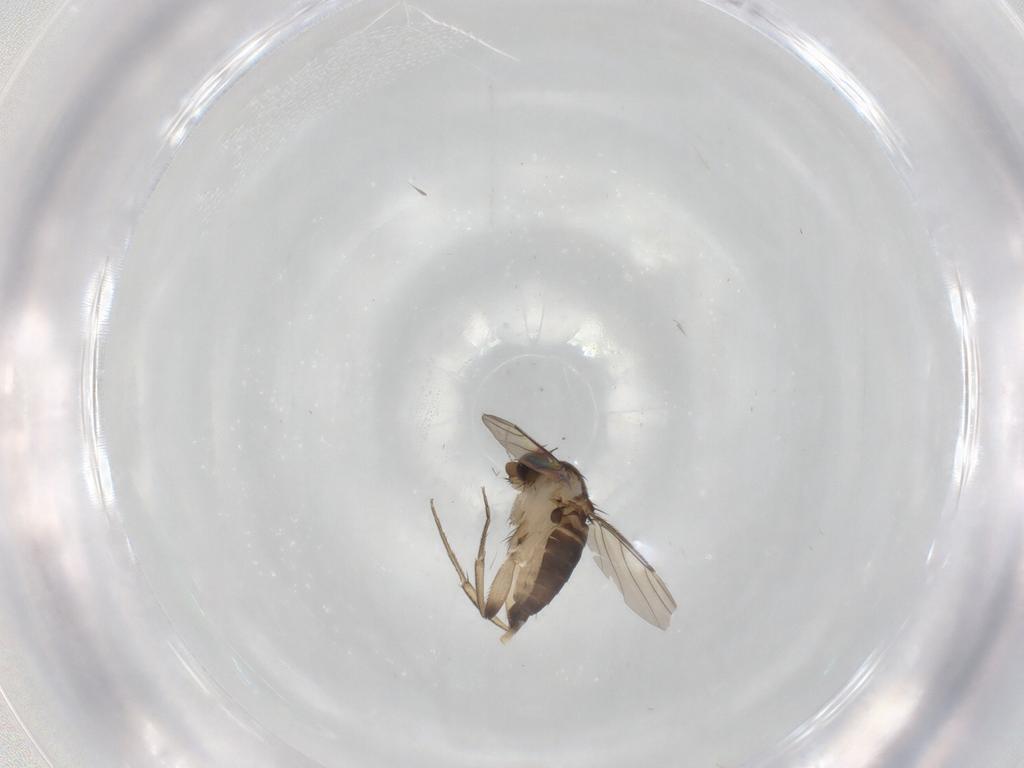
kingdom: Animalia
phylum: Arthropoda
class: Insecta
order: Diptera
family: Phoridae
